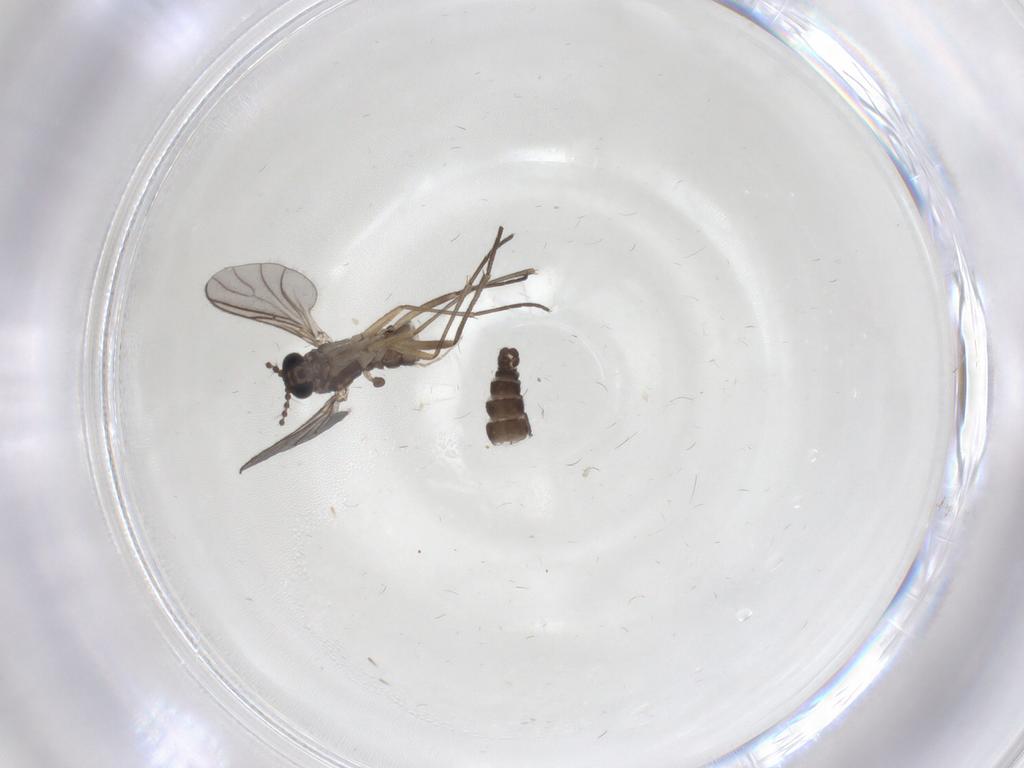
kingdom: Animalia
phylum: Arthropoda
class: Insecta
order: Diptera
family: Sciaridae
